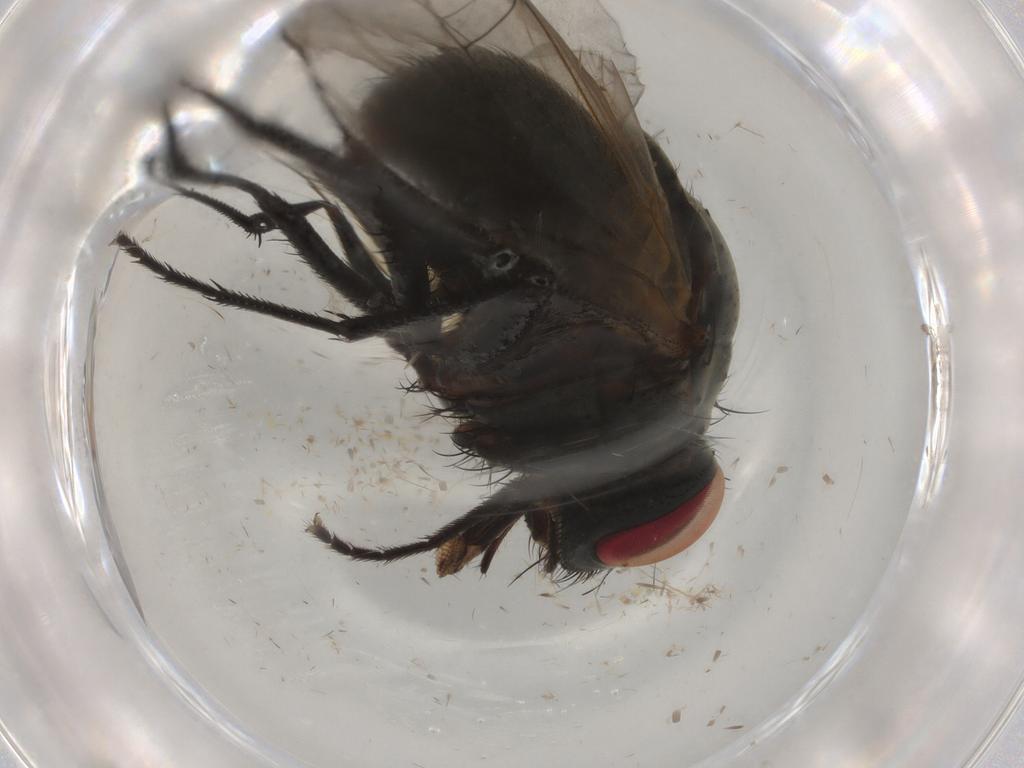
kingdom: Animalia
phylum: Arthropoda
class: Insecta
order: Diptera
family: Muscidae
